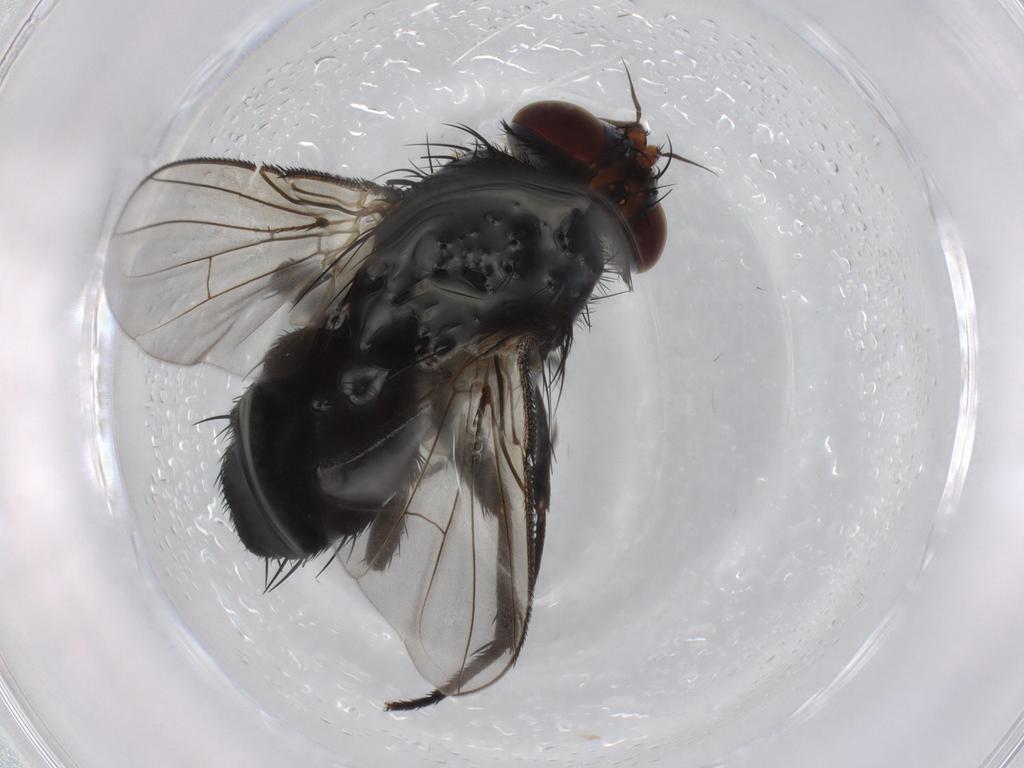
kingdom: Animalia
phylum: Arthropoda
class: Insecta
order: Diptera
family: Tachinidae
